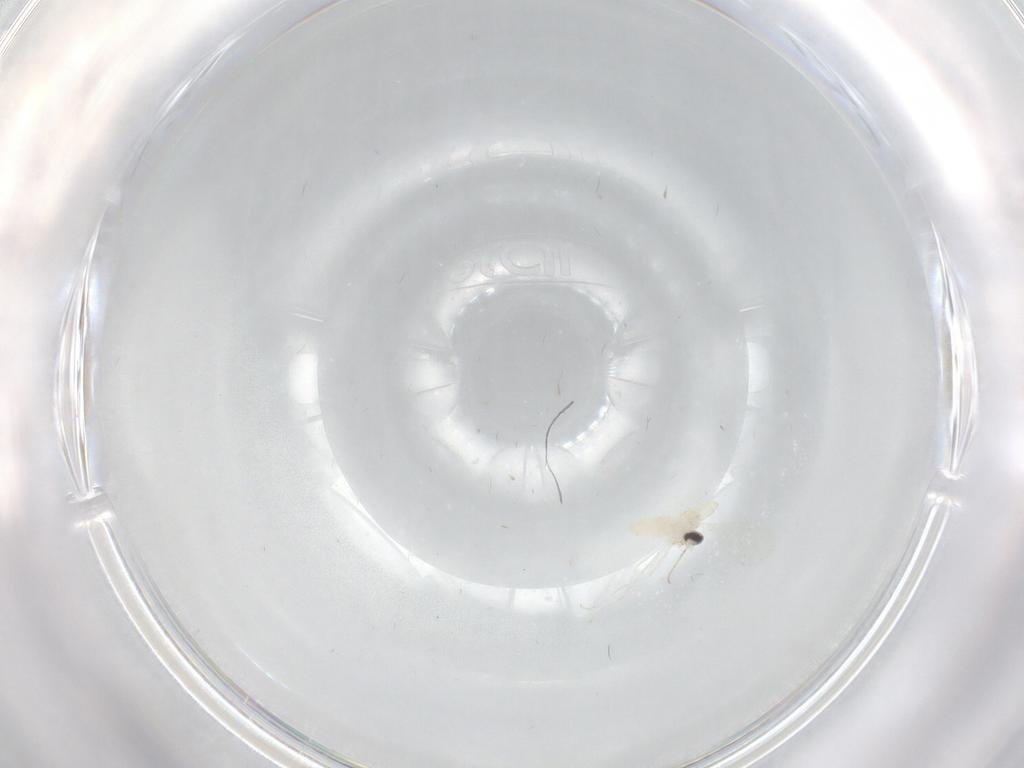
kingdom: Animalia
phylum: Arthropoda
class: Insecta
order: Diptera
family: Cecidomyiidae
